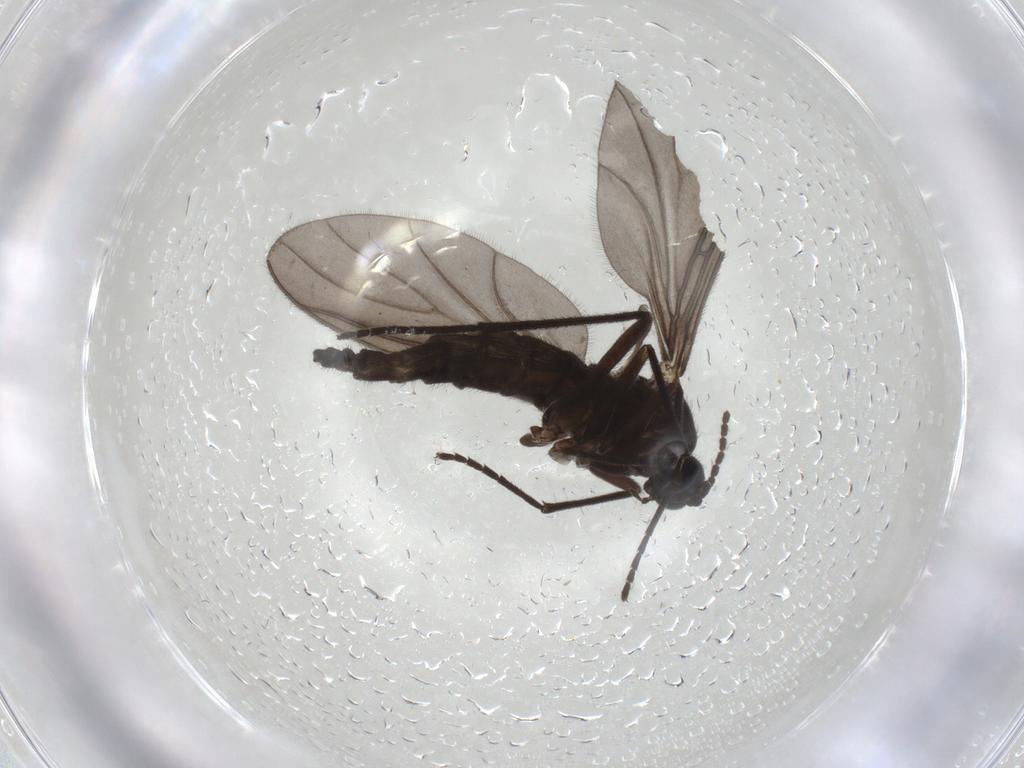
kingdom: Animalia
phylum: Arthropoda
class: Insecta
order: Diptera
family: Sciaridae
